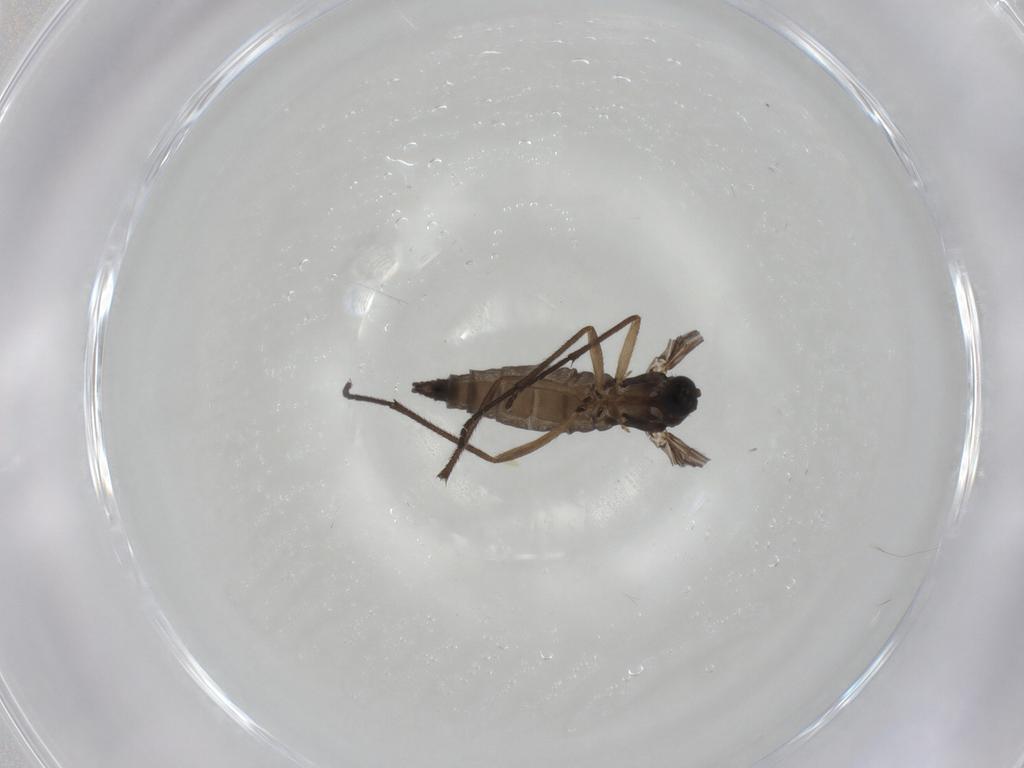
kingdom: Animalia
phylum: Arthropoda
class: Insecta
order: Diptera
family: Sciaridae
